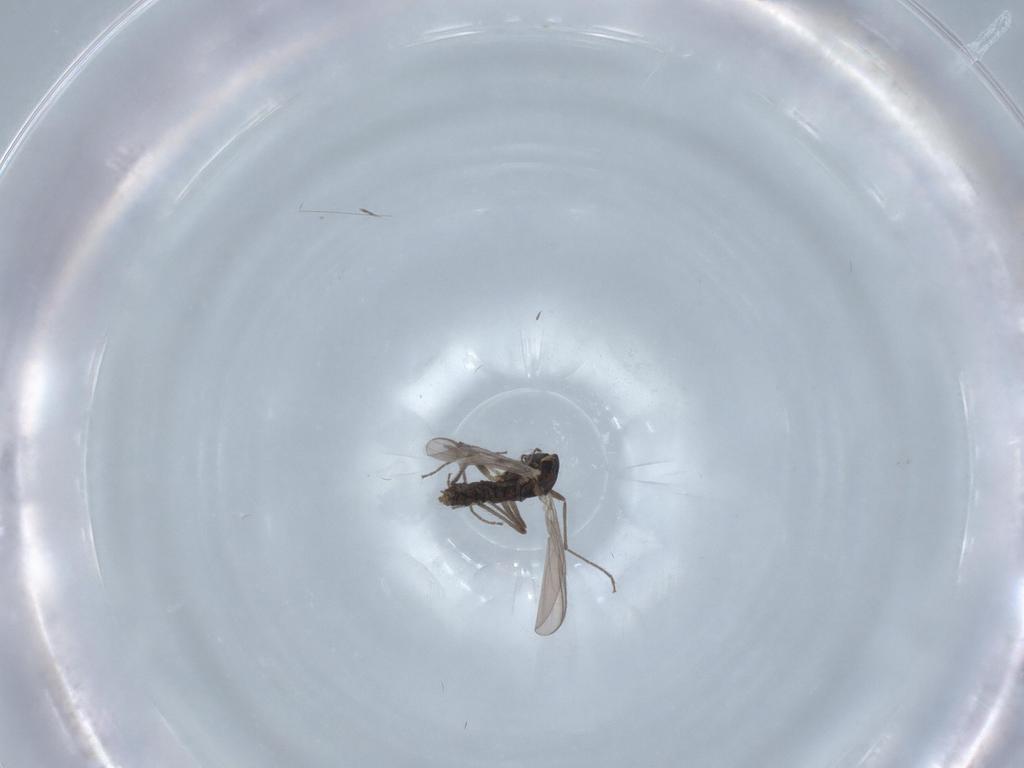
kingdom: Animalia
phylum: Arthropoda
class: Insecta
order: Diptera
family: Chironomidae
